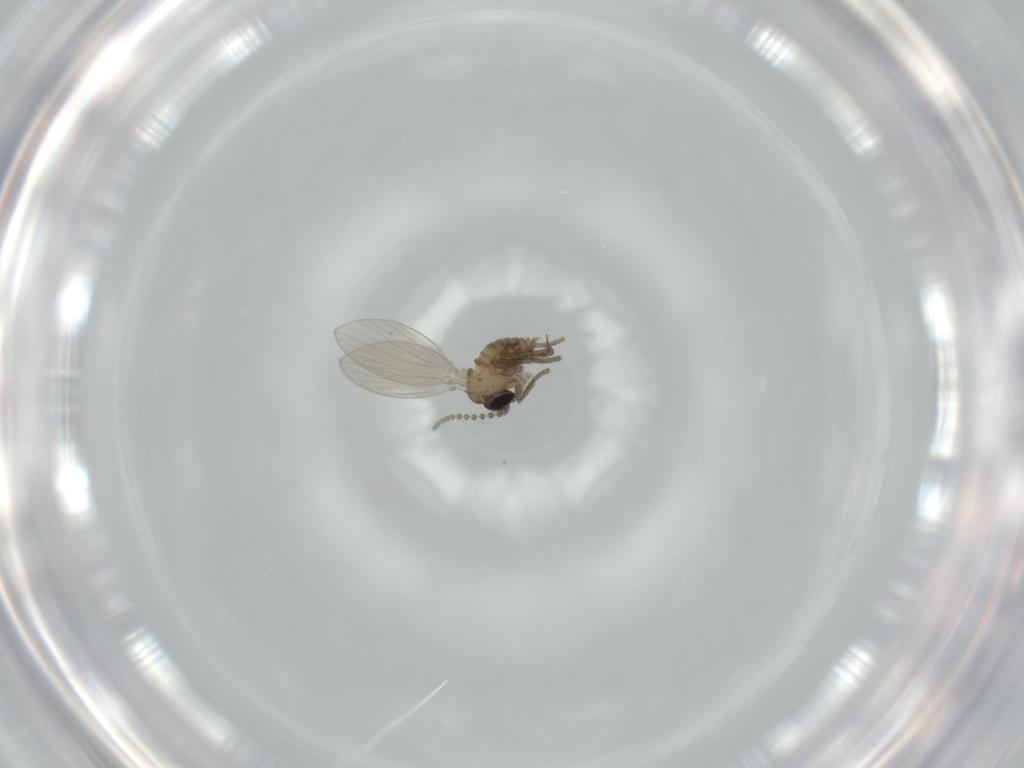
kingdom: Animalia
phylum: Arthropoda
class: Insecta
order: Diptera
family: Psychodidae
